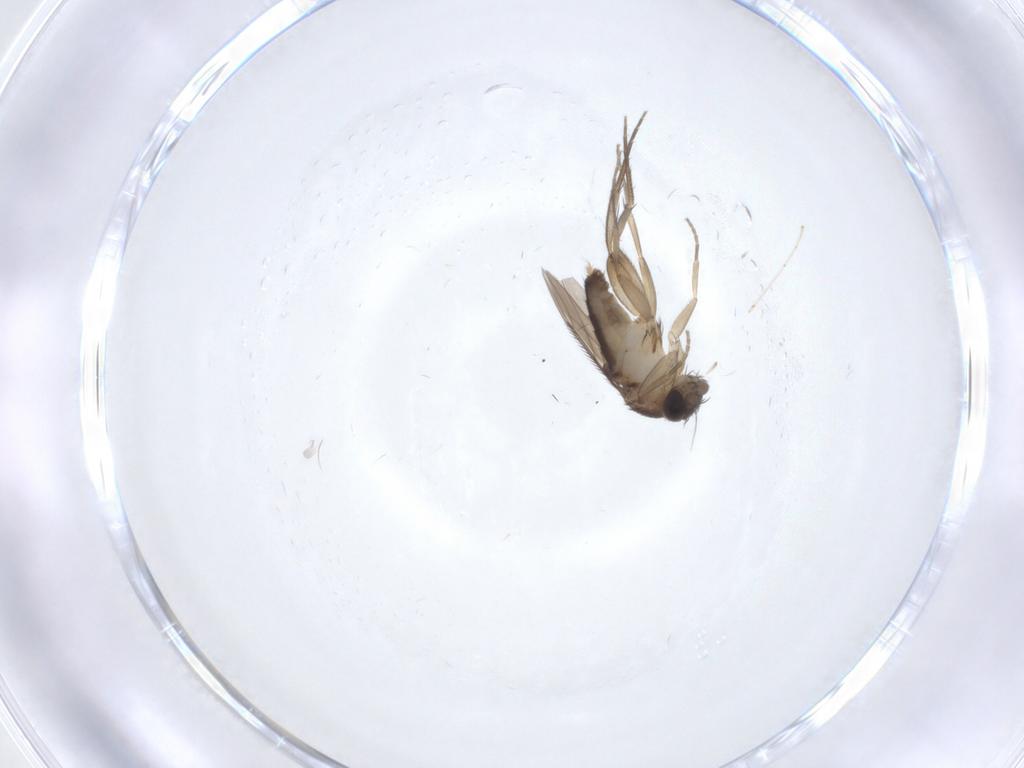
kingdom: Animalia
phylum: Arthropoda
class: Insecta
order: Diptera
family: Phoridae
